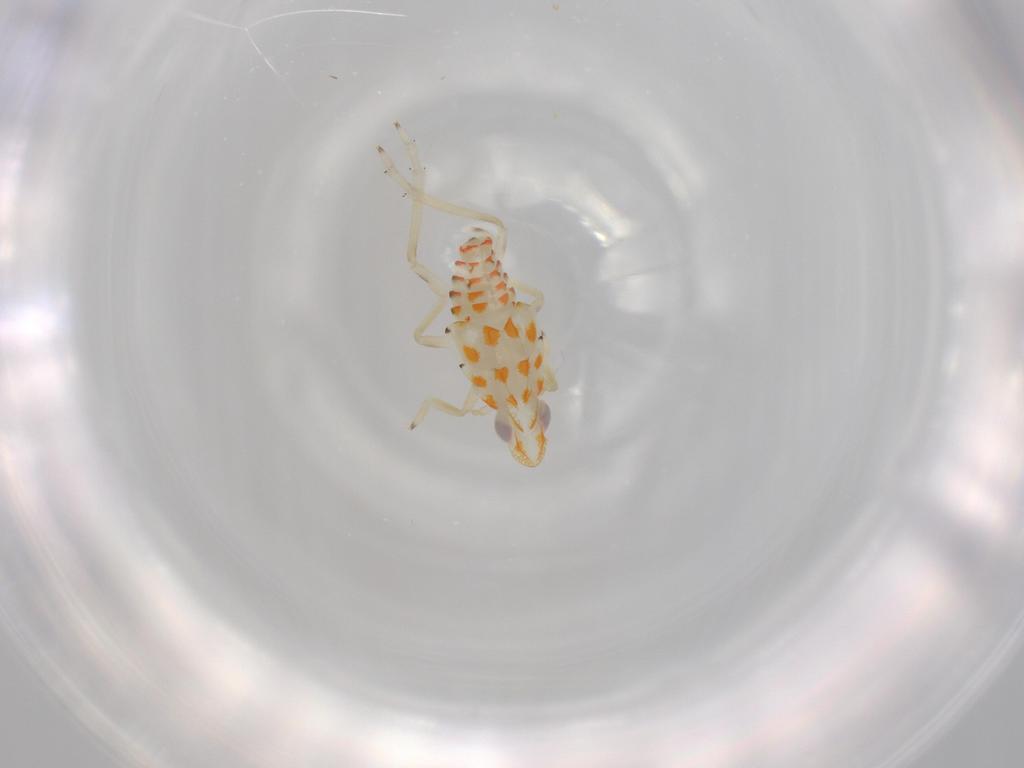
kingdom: Animalia
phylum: Arthropoda
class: Insecta
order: Hemiptera
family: Tropiduchidae
